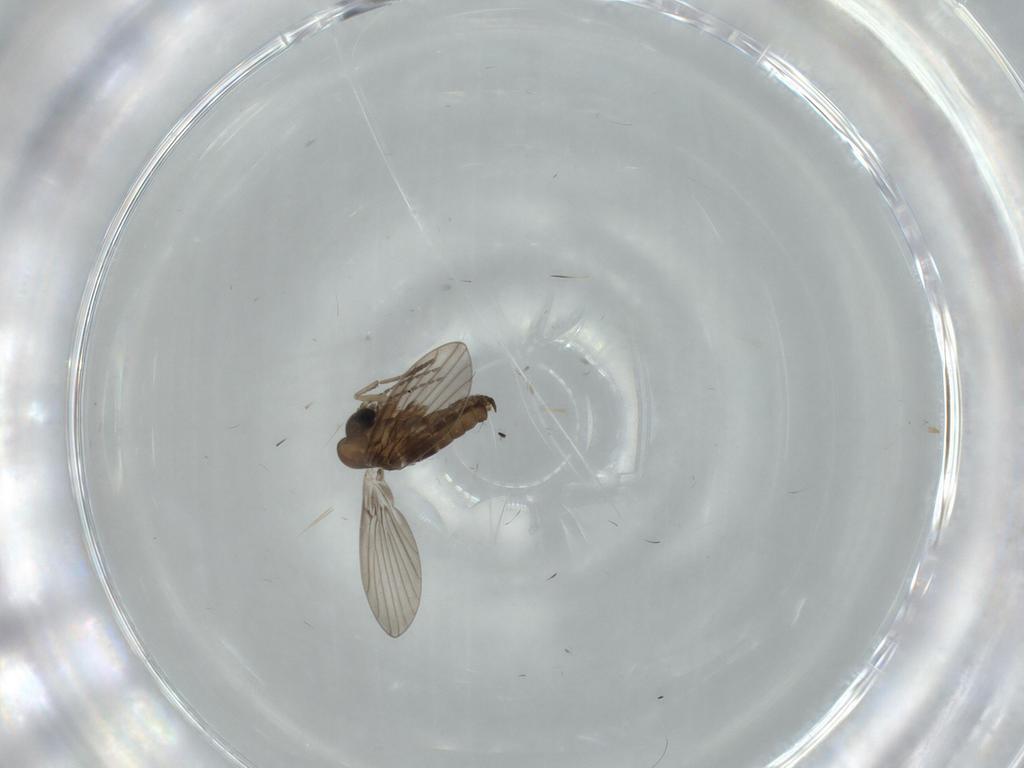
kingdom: Animalia
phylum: Arthropoda
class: Insecta
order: Diptera
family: Psychodidae
